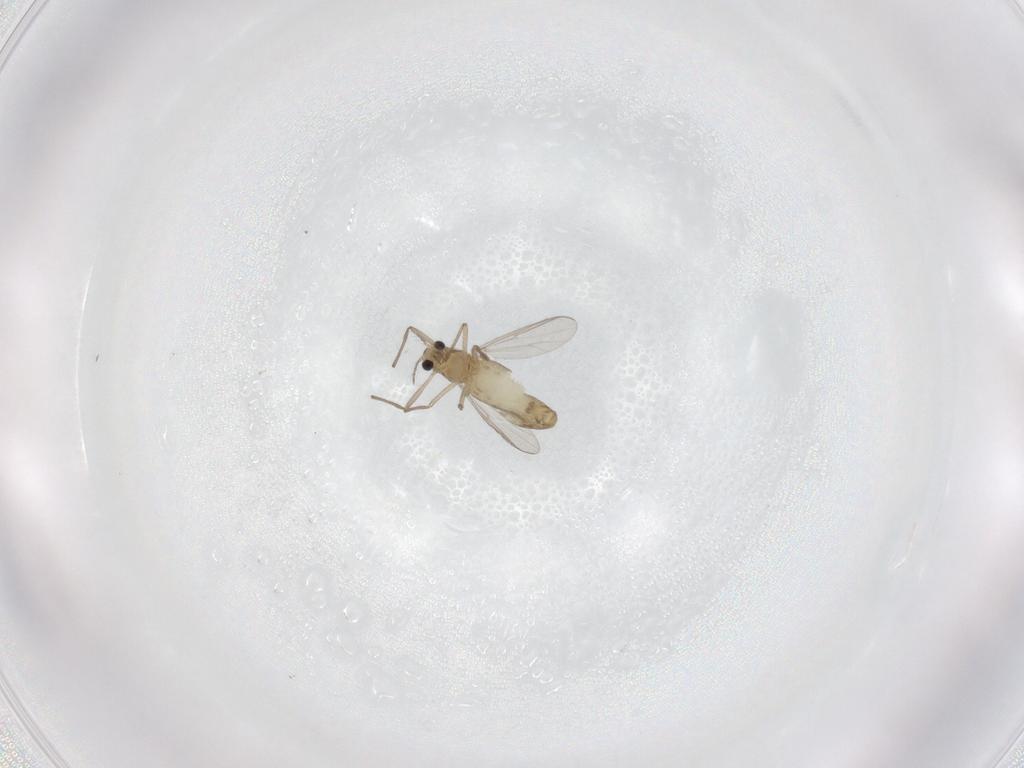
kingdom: Animalia
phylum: Arthropoda
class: Insecta
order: Diptera
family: Chironomidae
